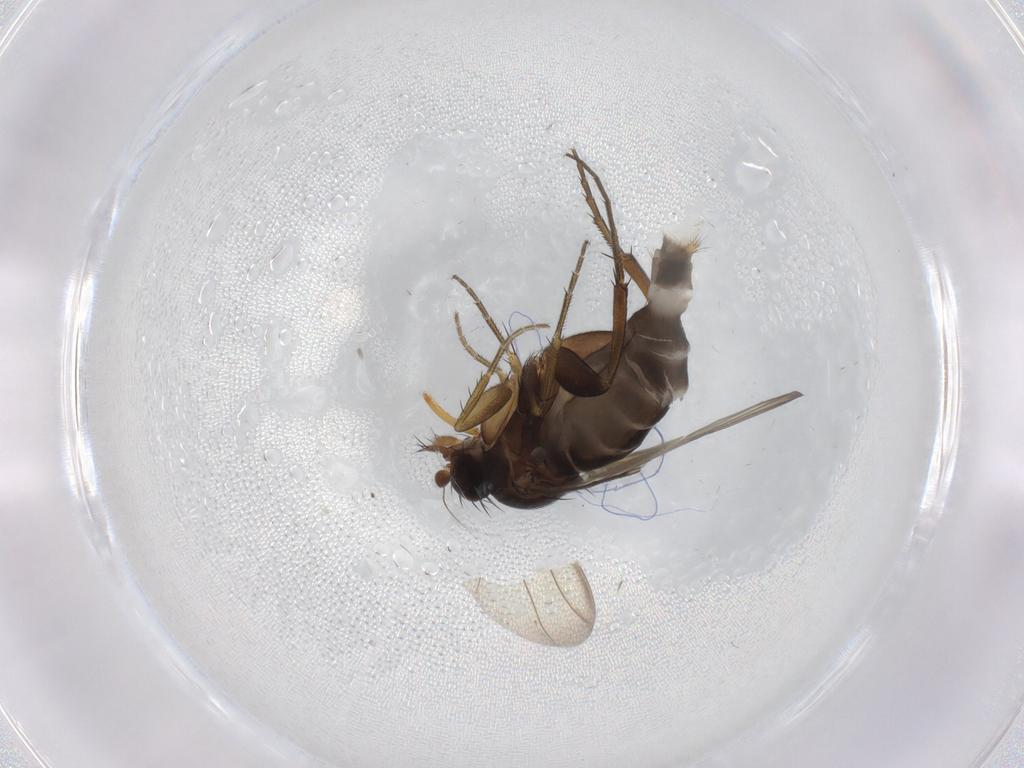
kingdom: Animalia
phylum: Arthropoda
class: Insecta
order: Diptera
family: Phoridae
